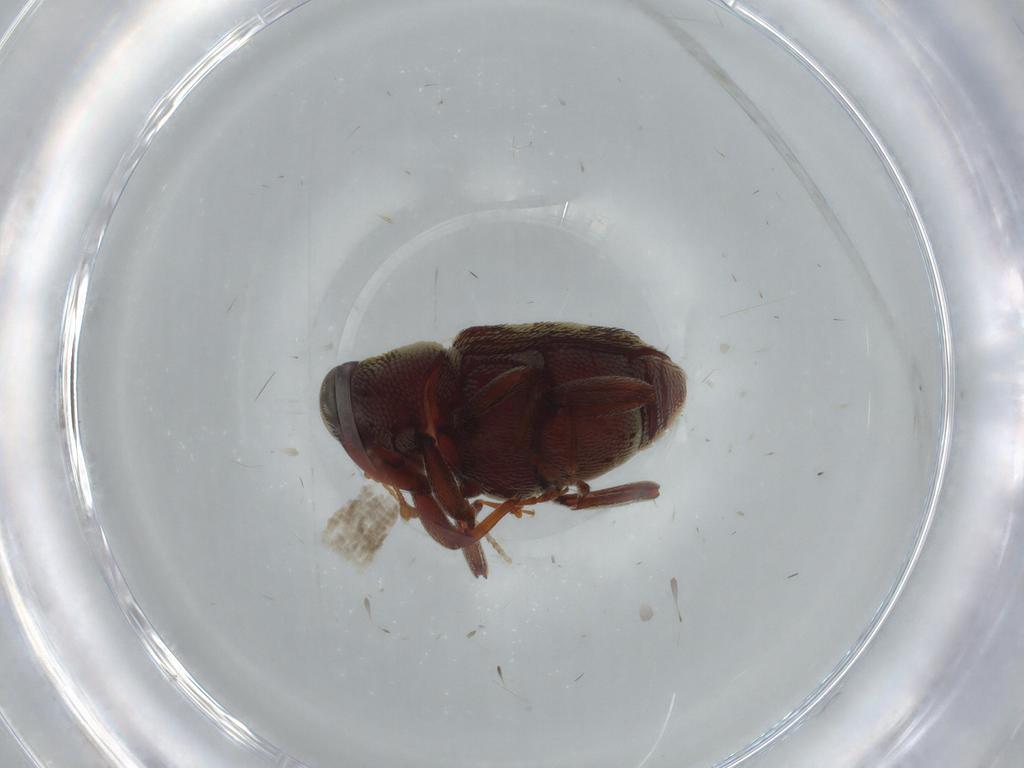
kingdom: Animalia
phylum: Arthropoda
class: Insecta
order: Coleoptera
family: Curculionidae
